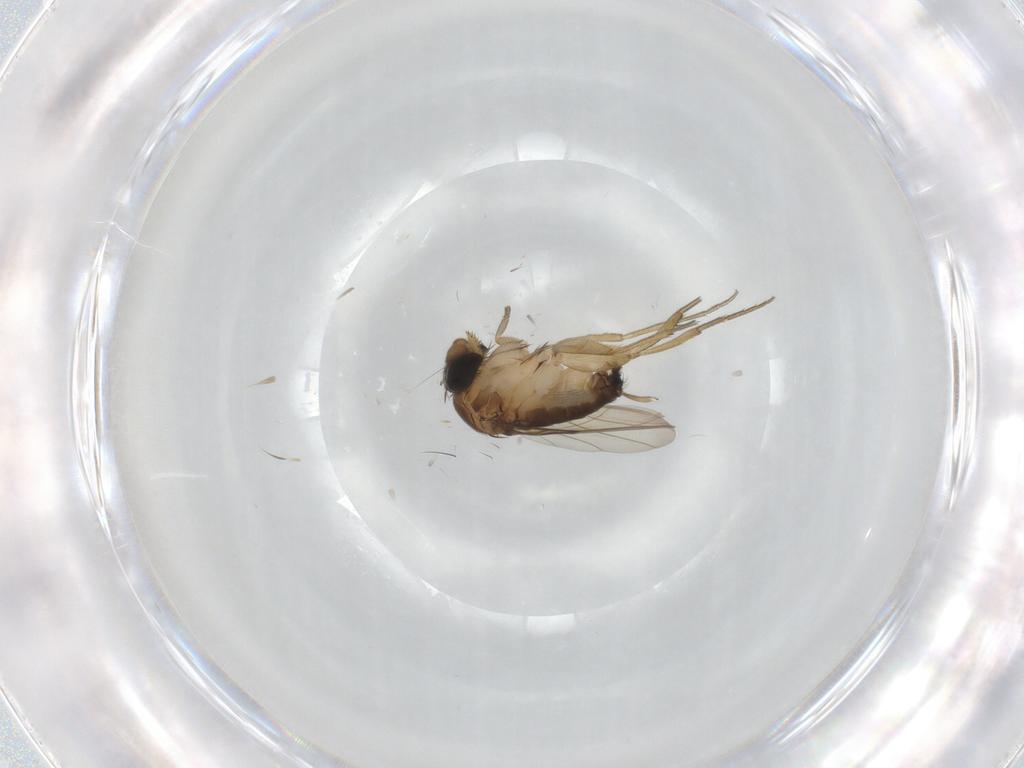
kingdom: Animalia
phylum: Arthropoda
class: Insecta
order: Diptera
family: Phoridae
